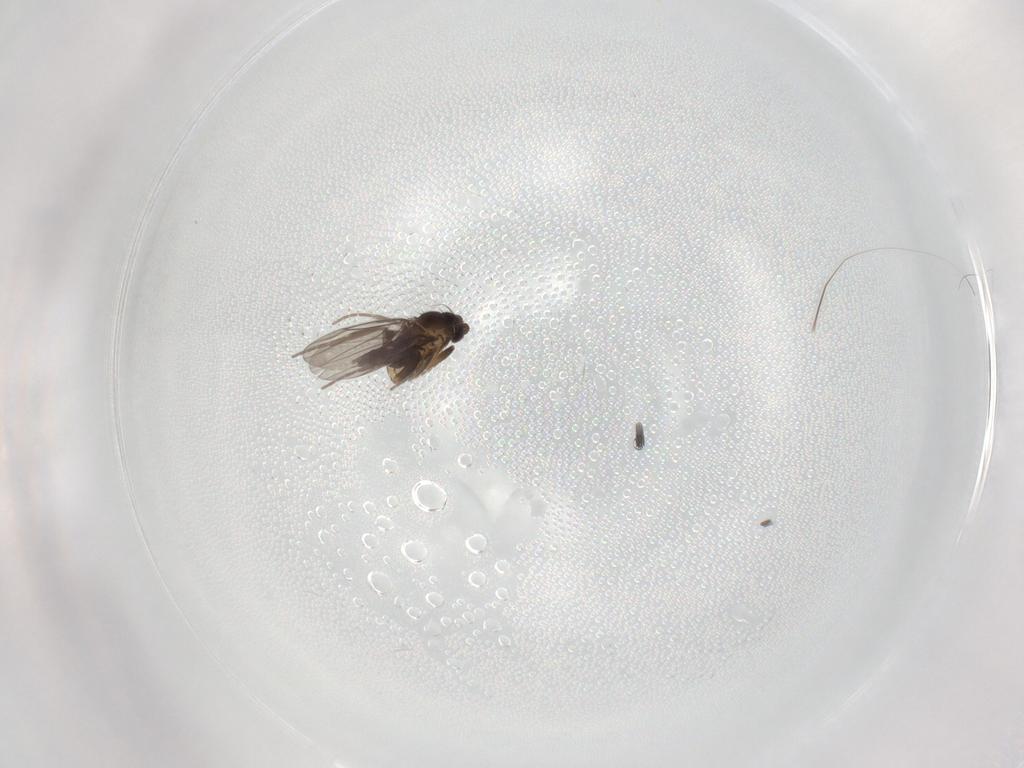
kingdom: Animalia
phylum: Arthropoda
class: Insecta
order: Diptera
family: Phoridae
